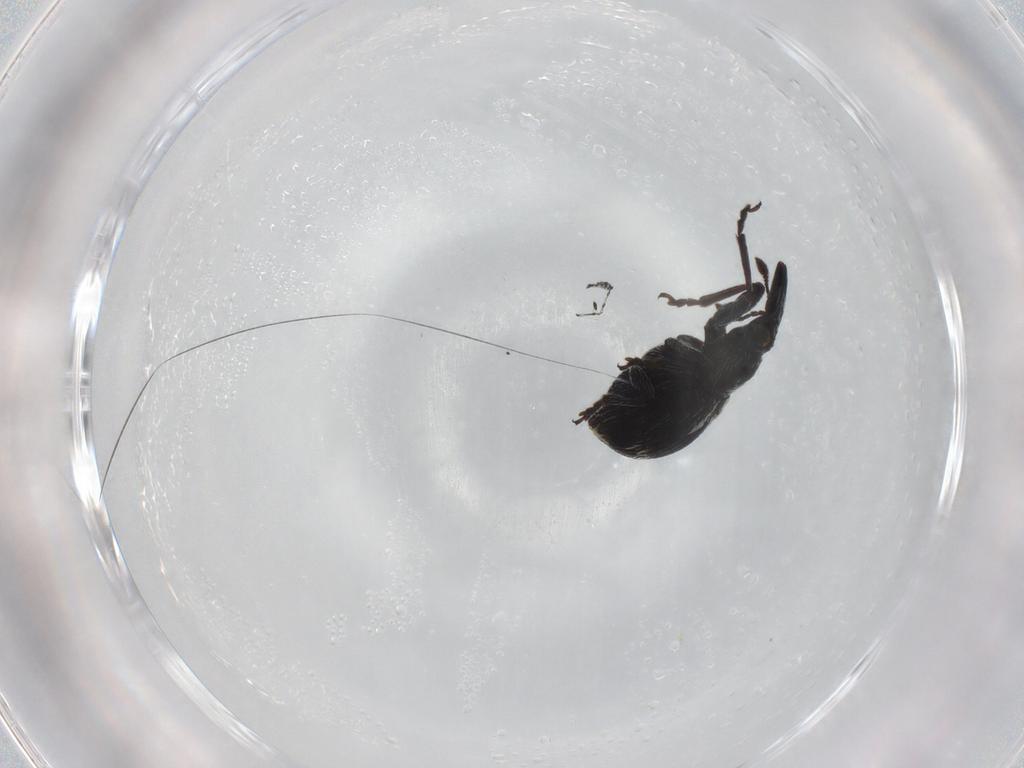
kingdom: Animalia
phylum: Arthropoda
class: Insecta
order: Coleoptera
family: Brentidae
